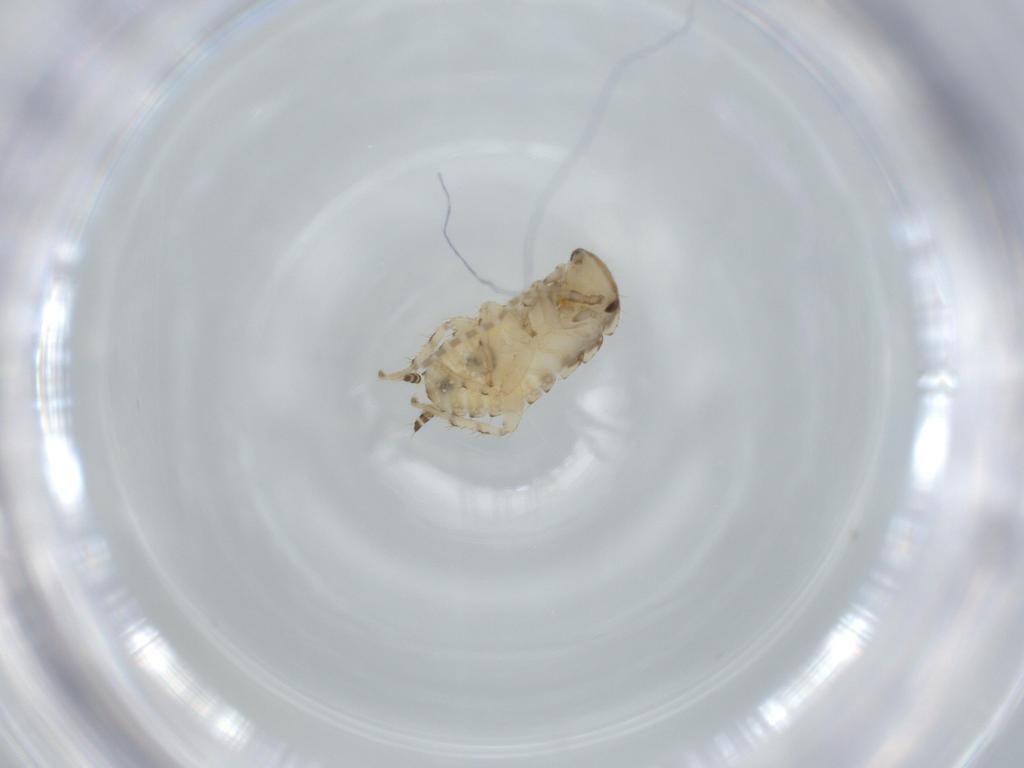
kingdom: Animalia
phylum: Arthropoda
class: Insecta
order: Blattodea
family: Ectobiidae
